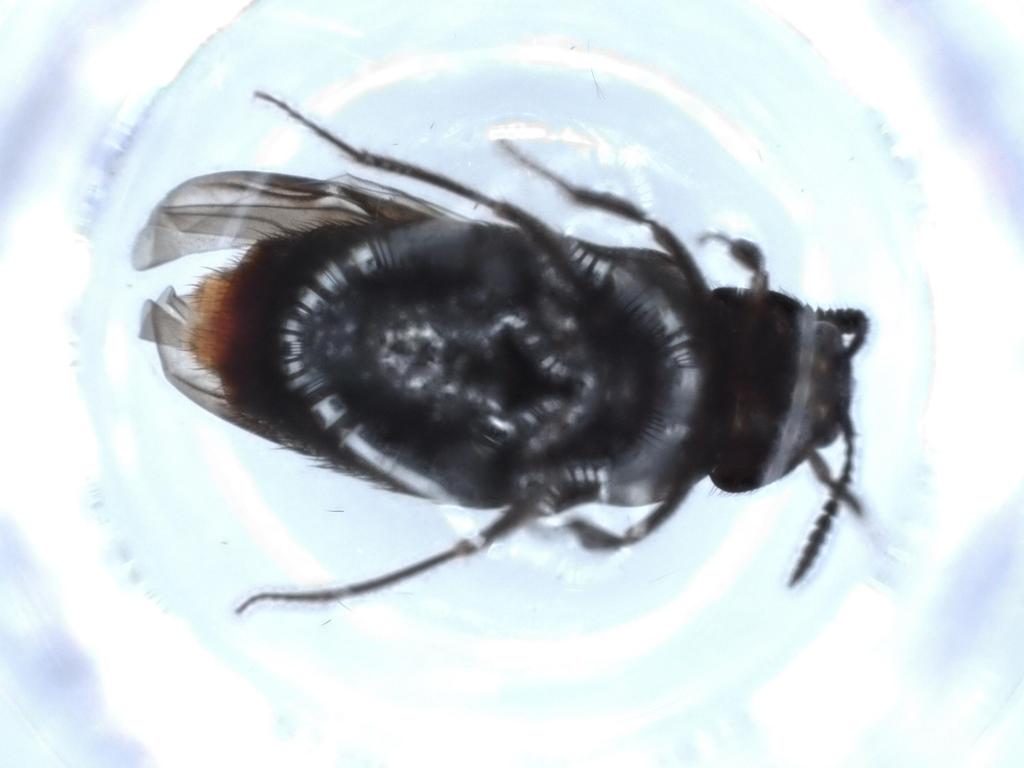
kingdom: Animalia
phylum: Arthropoda
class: Insecta
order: Coleoptera
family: Staphylinidae
